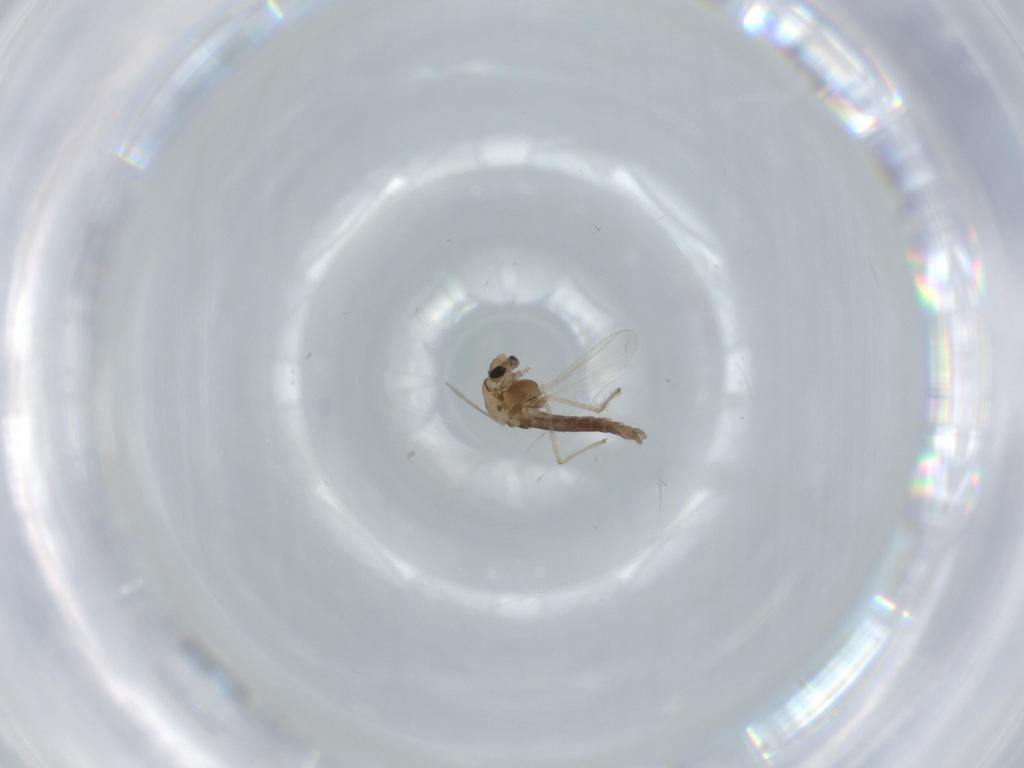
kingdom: Animalia
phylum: Arthropoda
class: Insecta
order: Diptera
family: Chironomidae
